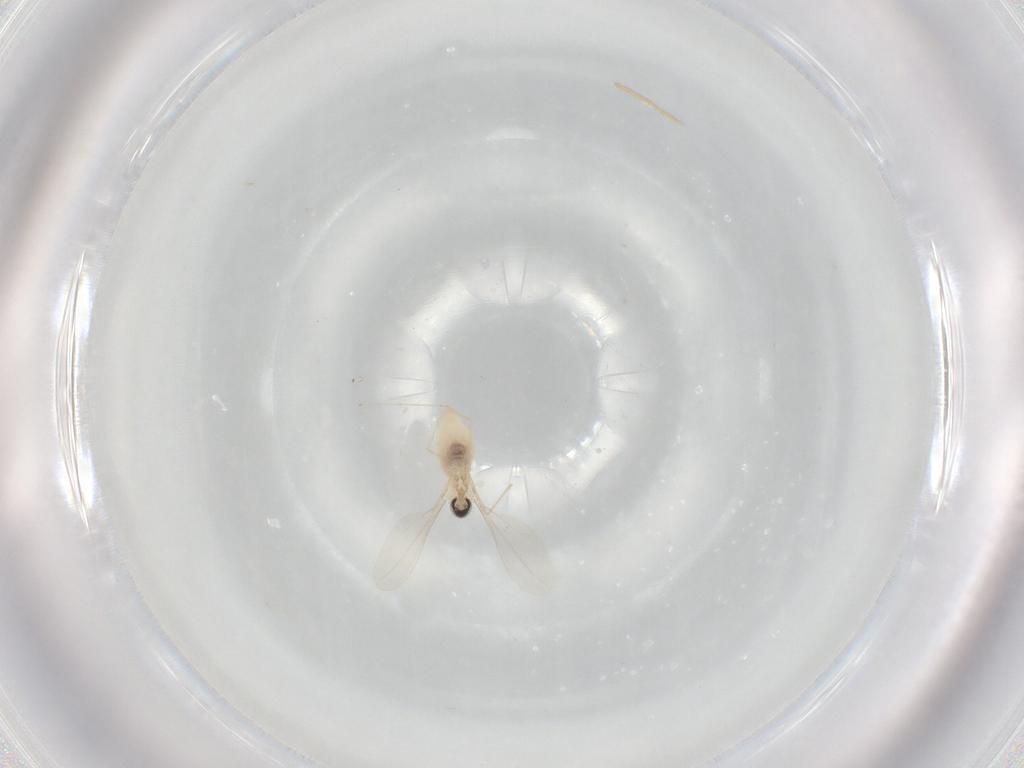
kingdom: Animalia
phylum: Arthropoda
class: Insecta
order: Diptera
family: Cecidomyiidae
